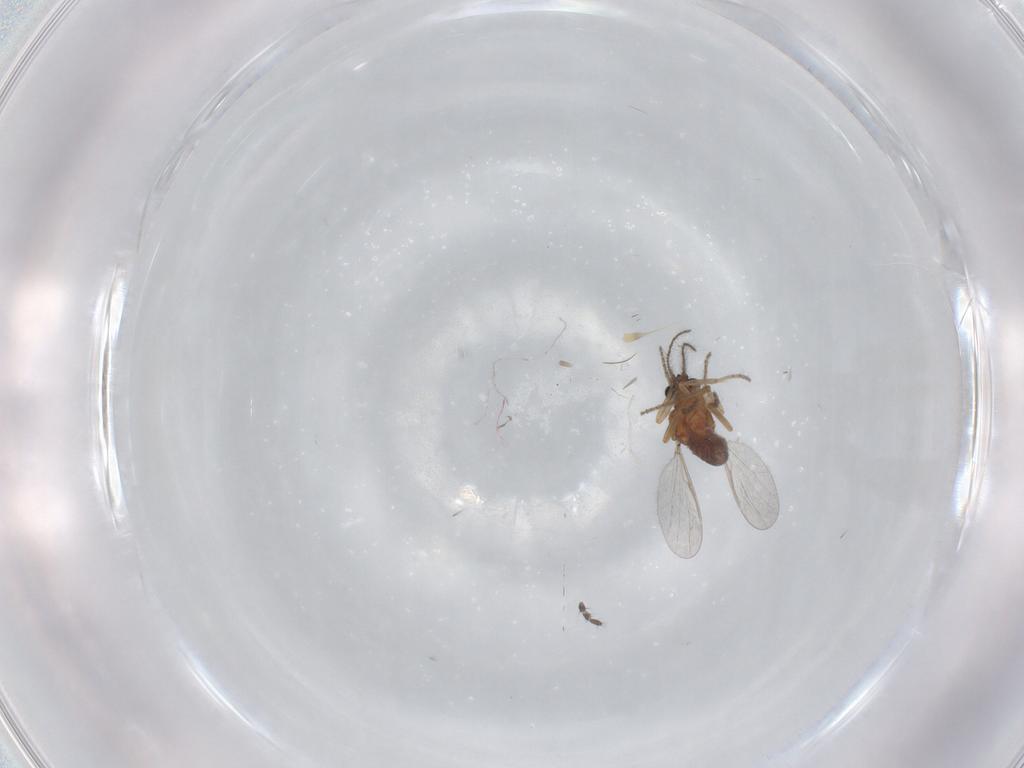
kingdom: Animalia
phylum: Arthropoda
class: Insecta
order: Diptera
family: Ceratopogonidae
